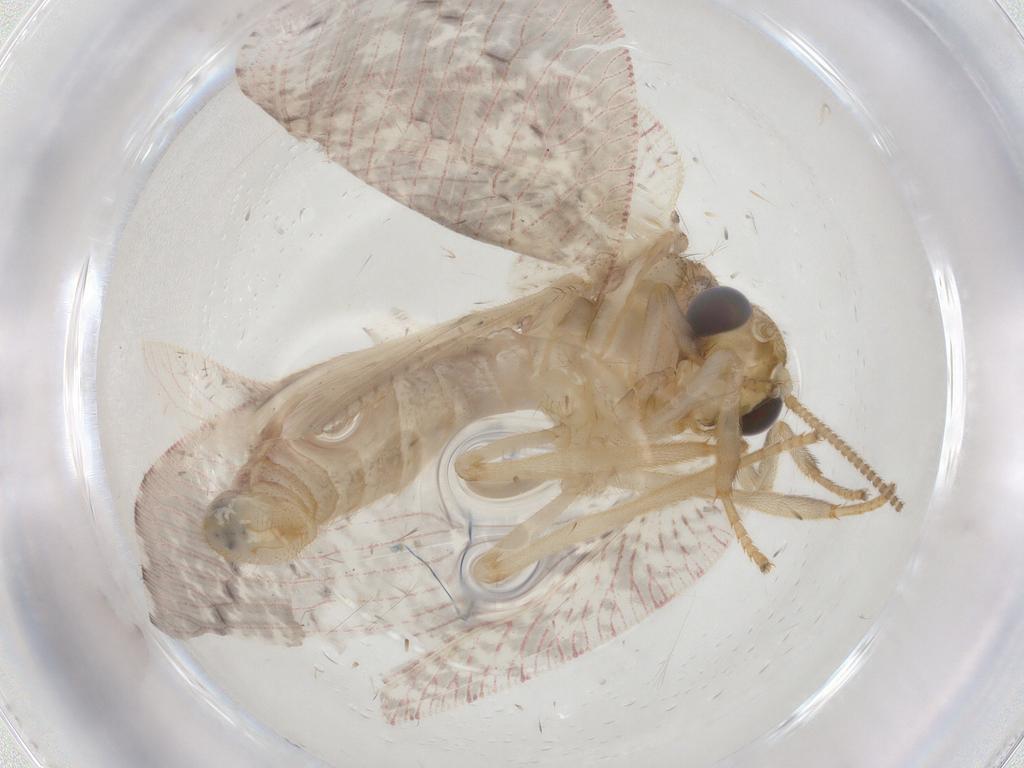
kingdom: Animalia
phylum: Arthropoda
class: Insecta
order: Neuroptera
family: Hemerobiidae
